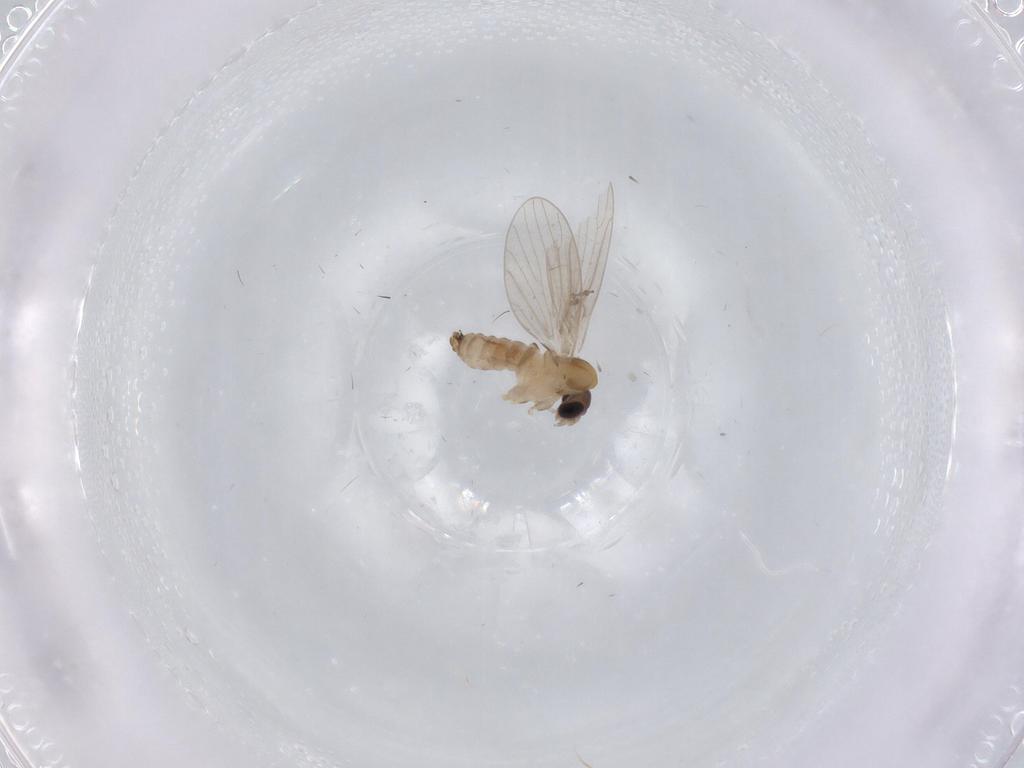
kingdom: Animalia
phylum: Arthropoda
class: Insecta
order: Diptera
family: Psychodidae
